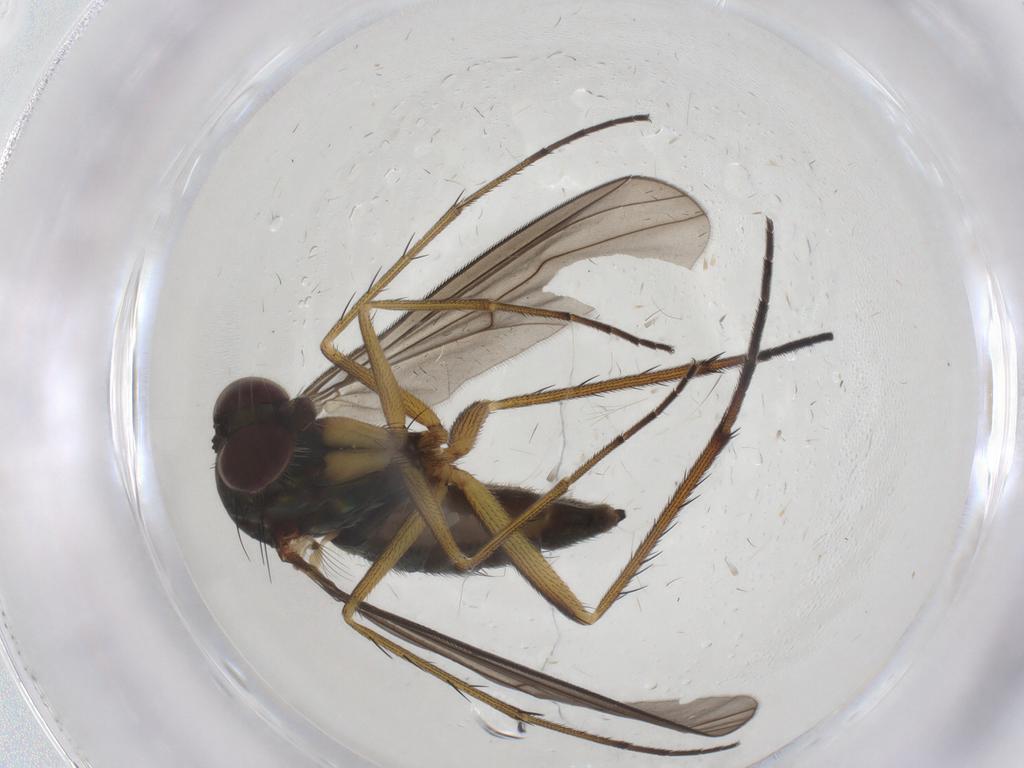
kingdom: Animalia
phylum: Arthropoda
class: Insecta
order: Diptera
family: Dolichopodidae
